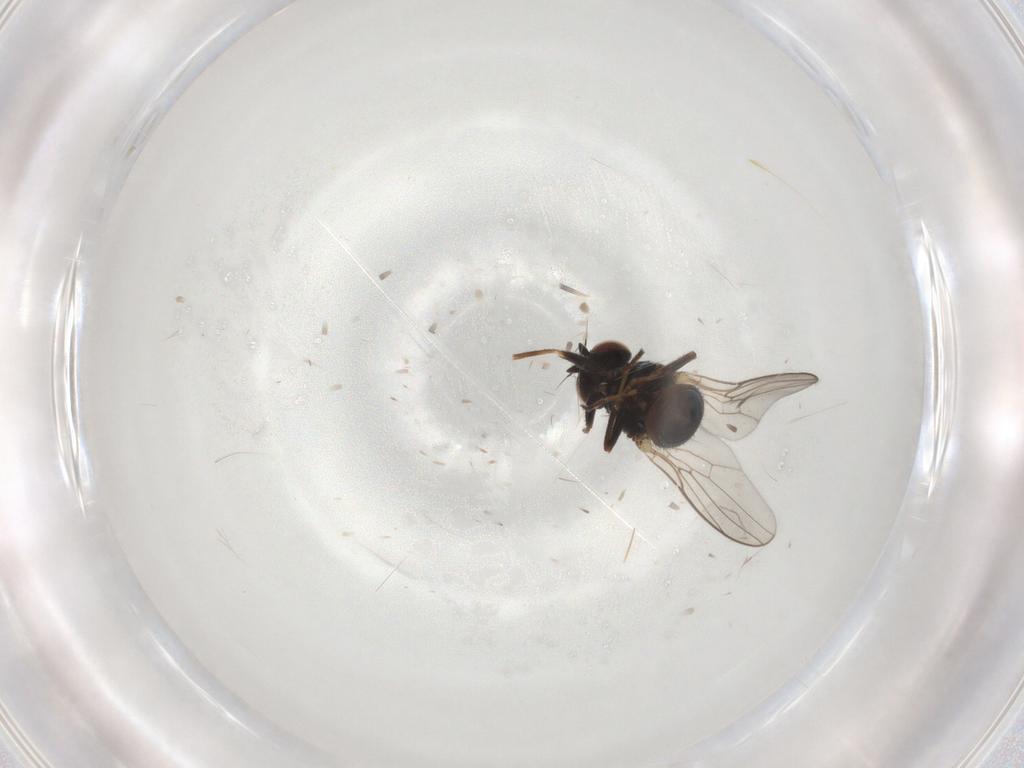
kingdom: Animalia
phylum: Arthropoda
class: Insecta
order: Diptera
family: Chloropidae
